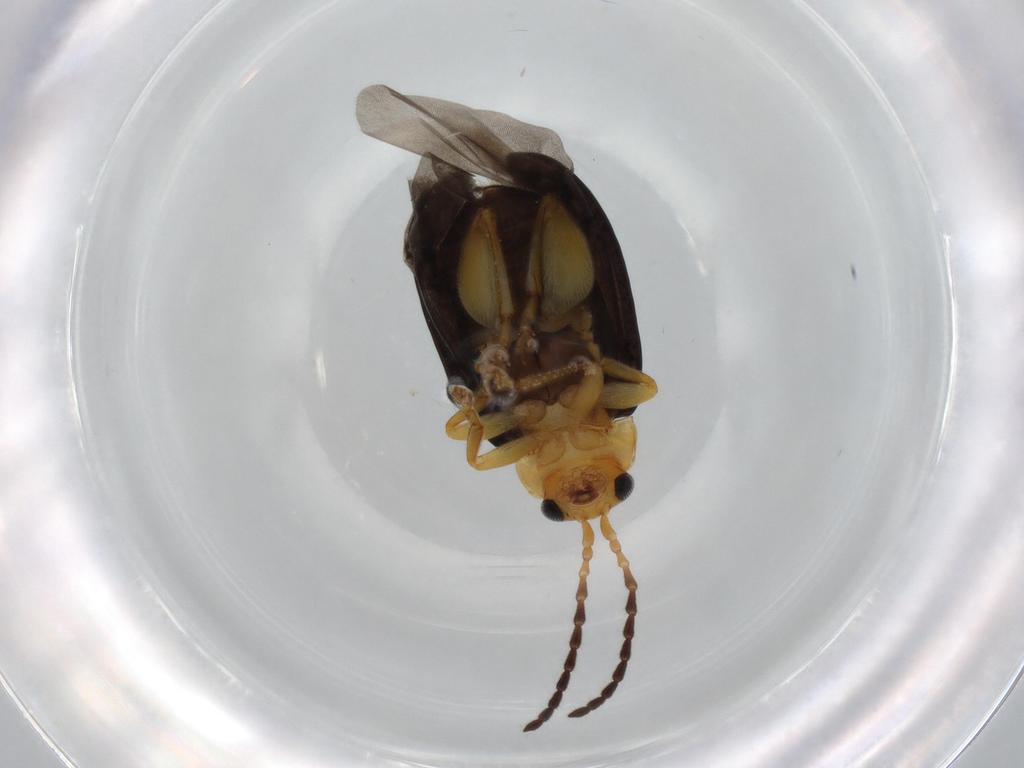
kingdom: Animalia
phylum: Arthropoda
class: Insecta
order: Coleoptera
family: Chrysomelidae
